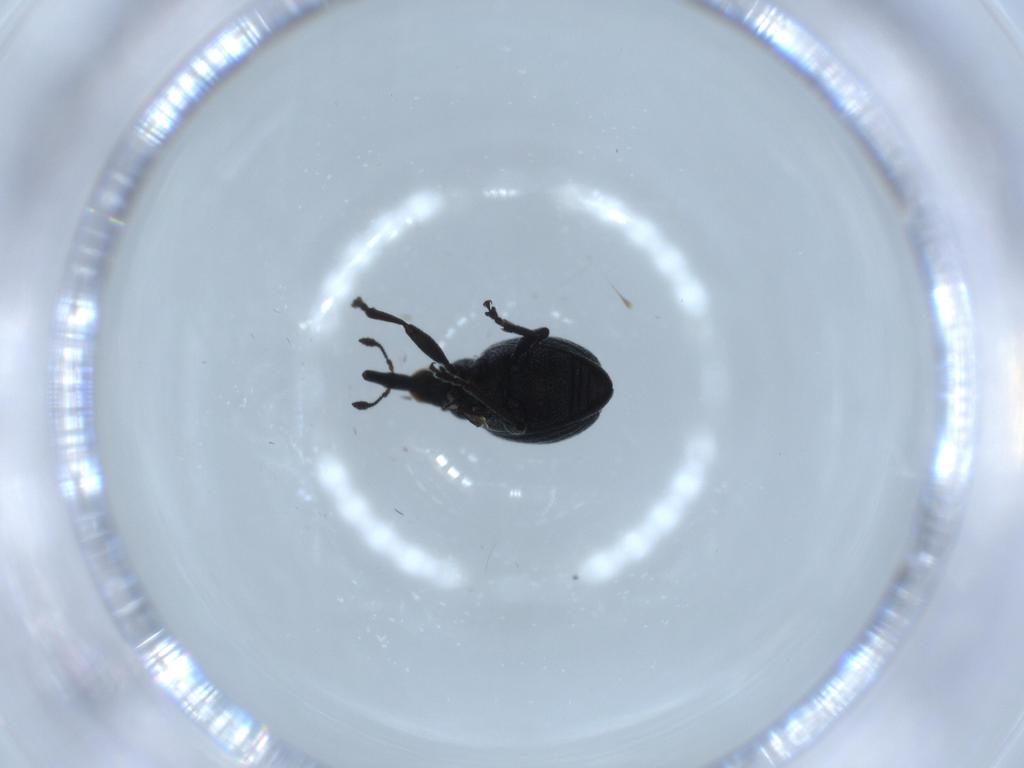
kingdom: Animalia
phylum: Arthropoda
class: Insecta
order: Coleoptera
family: Brentidae
